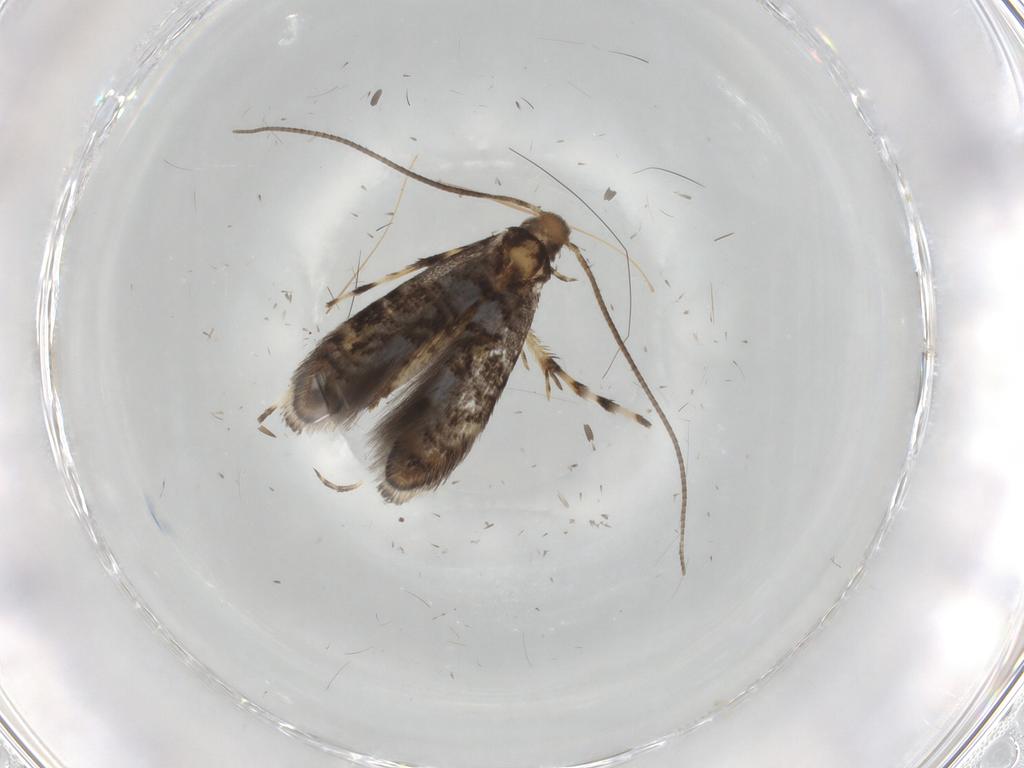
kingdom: Animalia
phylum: Arthropoda
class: Insecta
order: Lepidoptera
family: Gracillariidae
